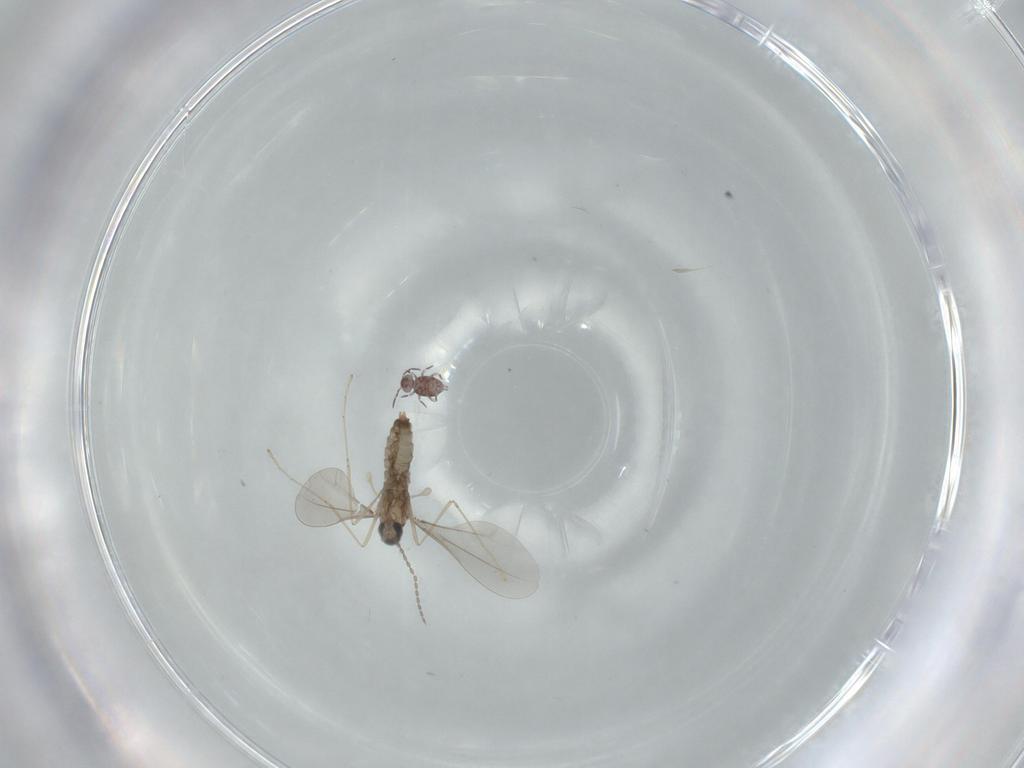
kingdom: Animalia
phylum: Arthropoda
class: Insecta
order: Diptera
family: Cecidomyiidae
